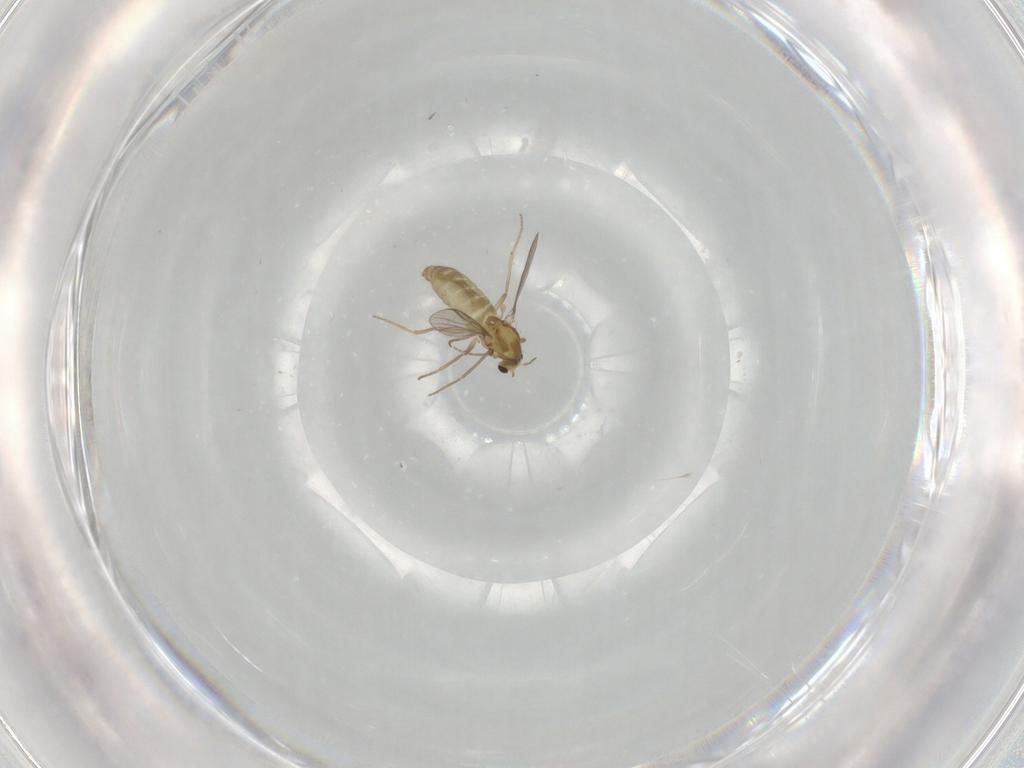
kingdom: Animalia
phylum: Arthropoda
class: Insecta
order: Diptera
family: Chironomidae
